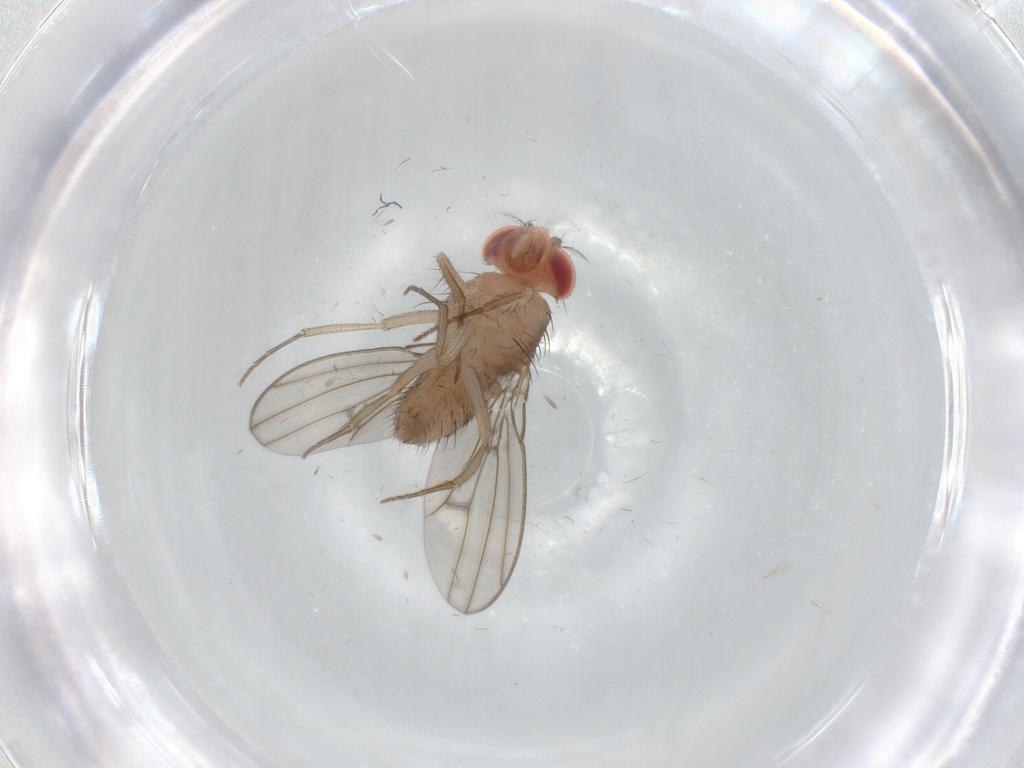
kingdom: Animalia
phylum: Arthropoda
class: Insecta
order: Diptera
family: Drosophilidae
